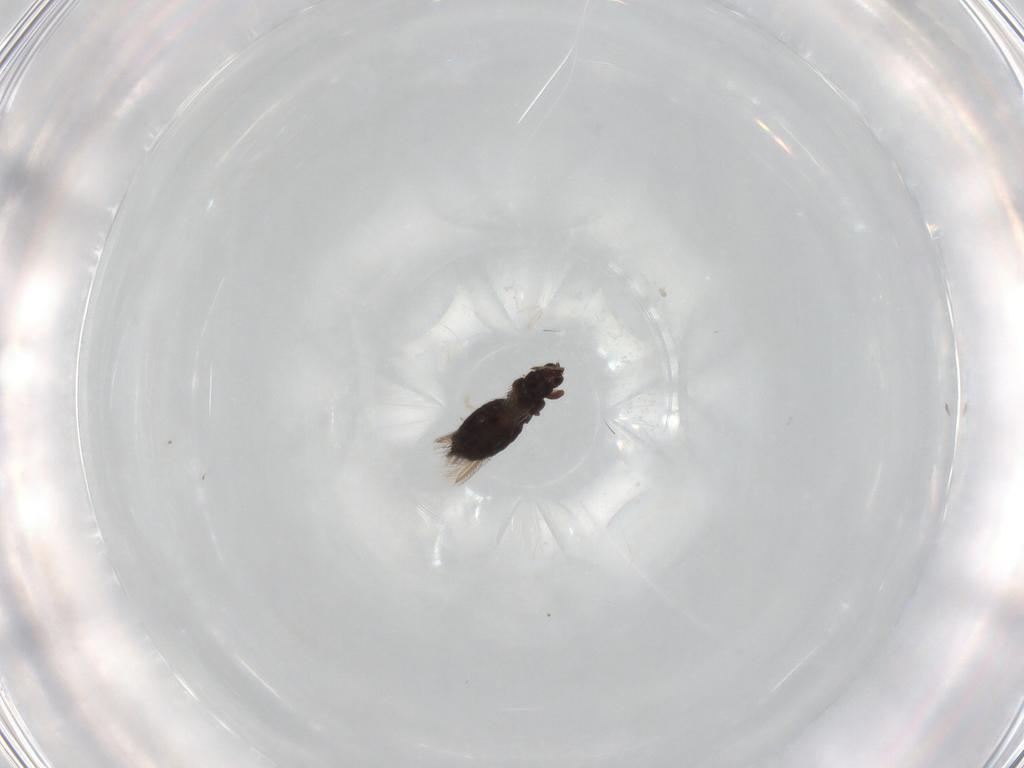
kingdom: Animalia
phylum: Arthropoda
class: Insecta
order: Thysanoptera
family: Thripidae
